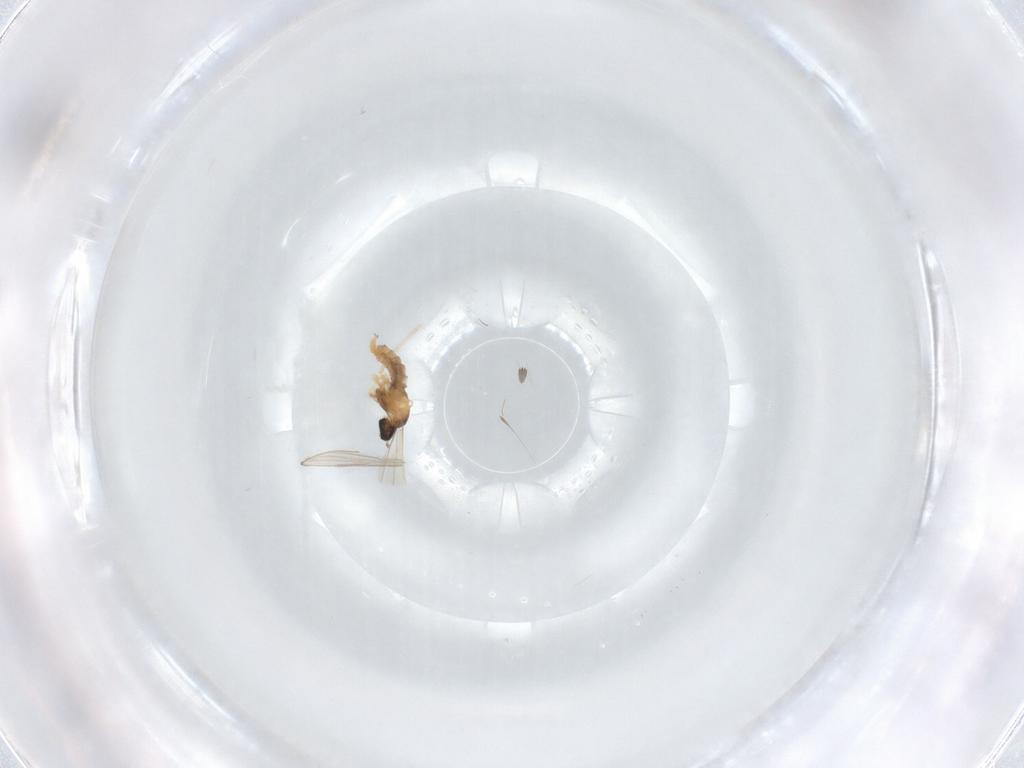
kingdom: Animalia
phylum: Arthropoda
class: Insecta
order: Diptera
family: Cecidomyiidae
